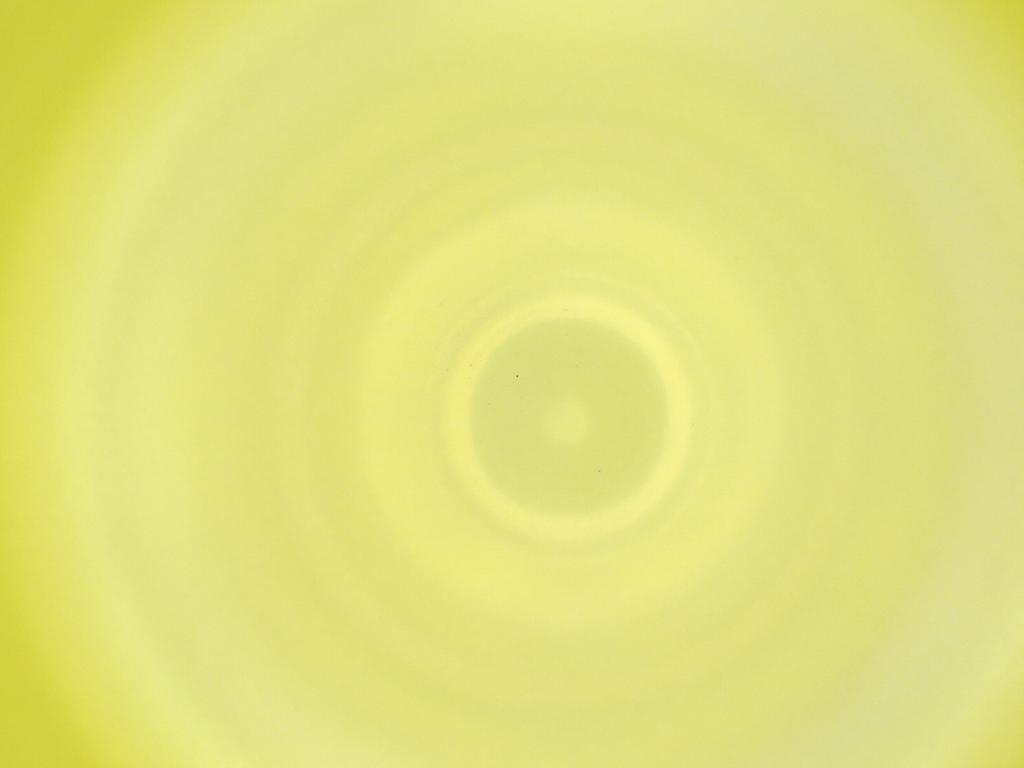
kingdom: Animalia
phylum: Arthropoda
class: Insecta
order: Diptera
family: Cecidomyiidae
